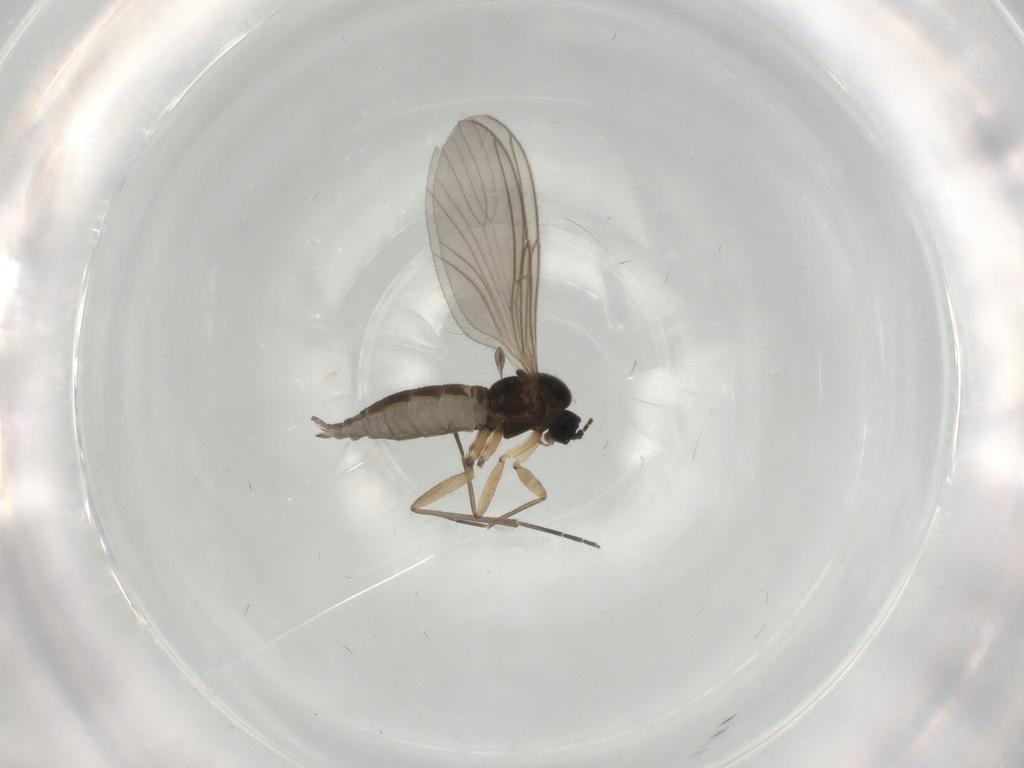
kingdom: Animalia
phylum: Arthropoda
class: Insecta
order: Diptera
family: Sciaridae
